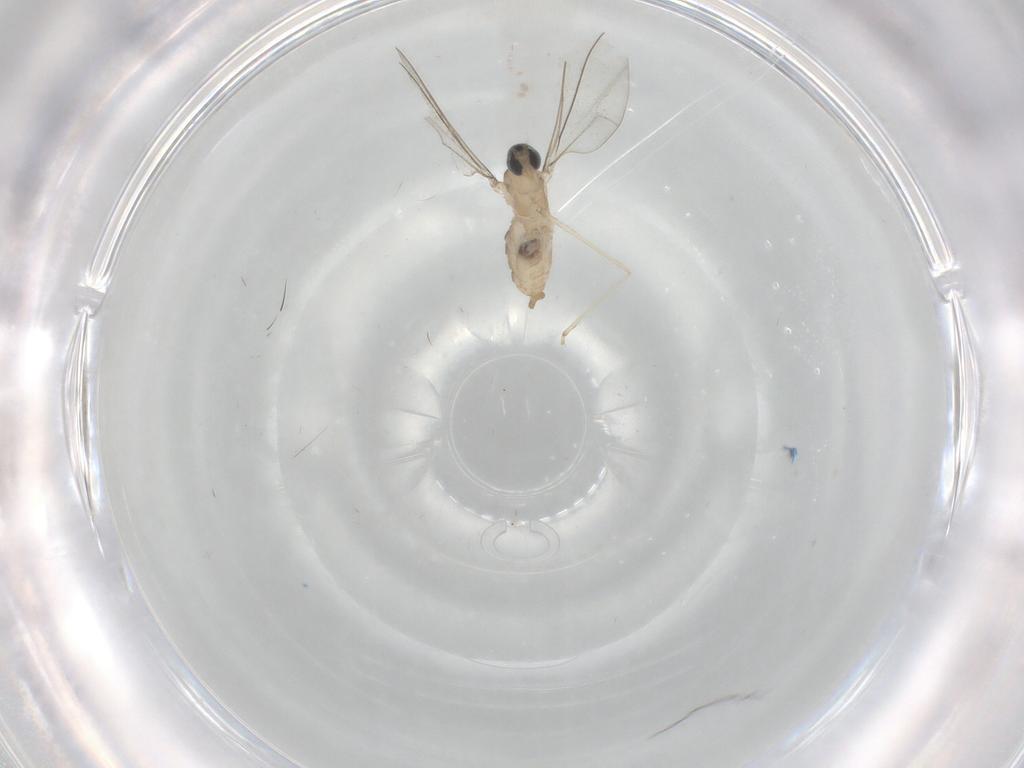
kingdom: Animalia
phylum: Arthropoda
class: Insecta
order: Diptera
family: Cecidomyiidae
